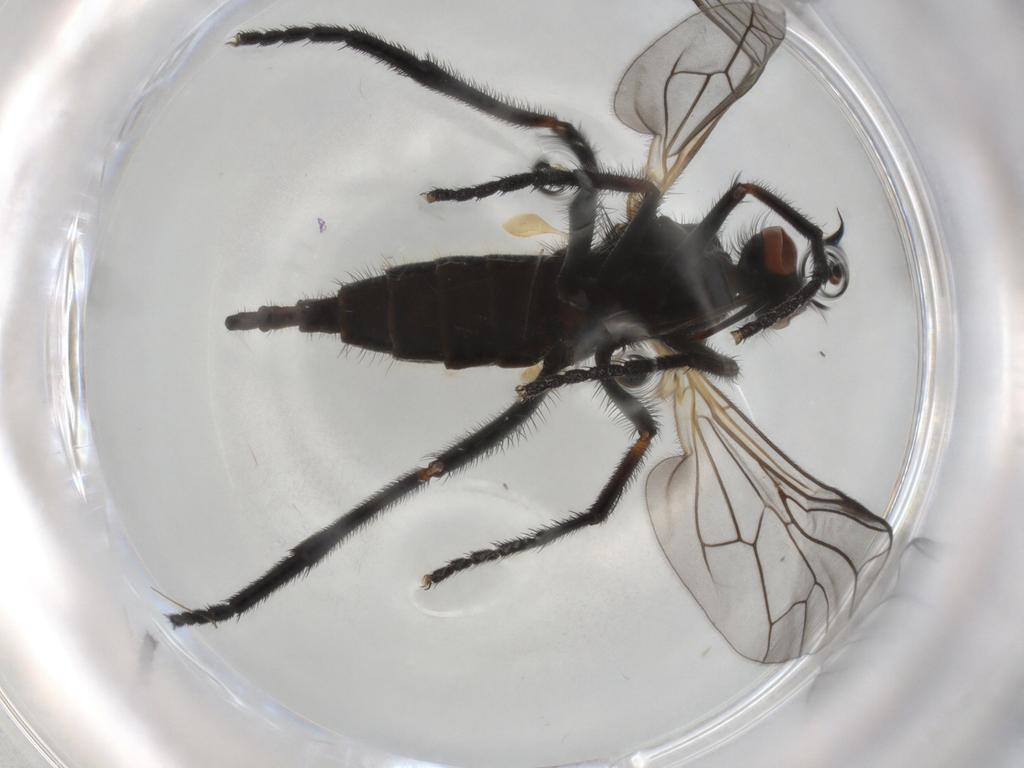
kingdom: Animalia
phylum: Arthropoda
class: Insecta
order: Diptera
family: Empididae
